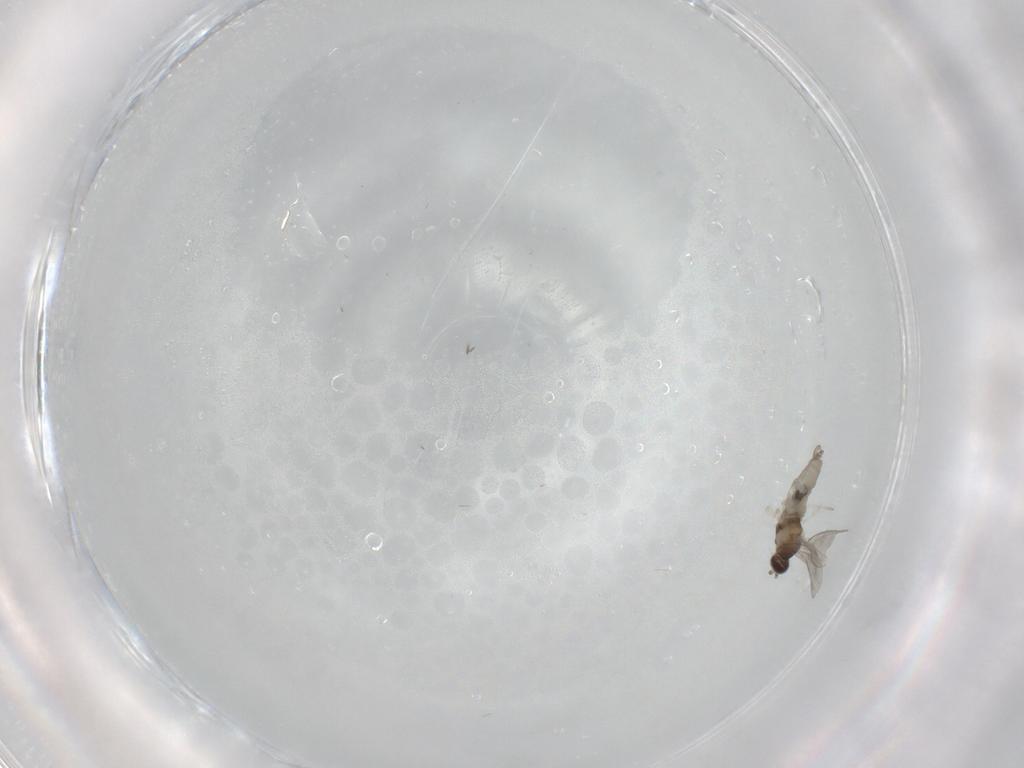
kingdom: Animalia
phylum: Arthropoda
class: Insecta
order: Diptera
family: Cecidomyiidae
